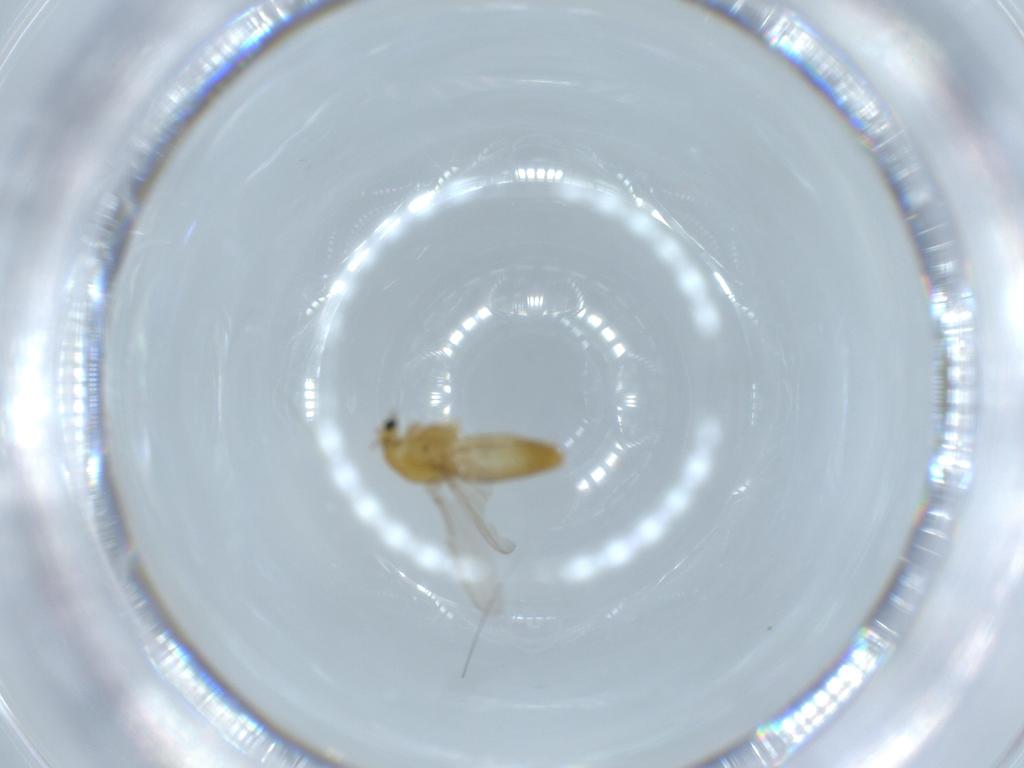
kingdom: Animalia
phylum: Arthropoda
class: Insecta
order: Diptera
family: Chironomidae
